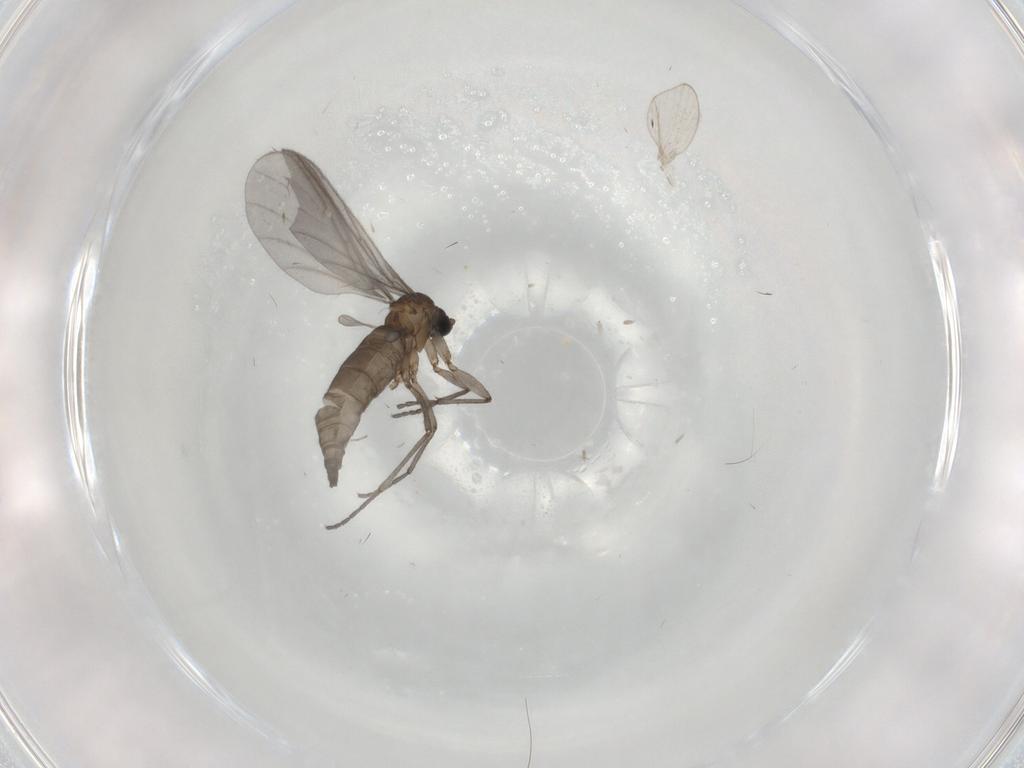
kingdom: Animalia
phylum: Arthropoda
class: Insecta
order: Diptera
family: Sciaridae
